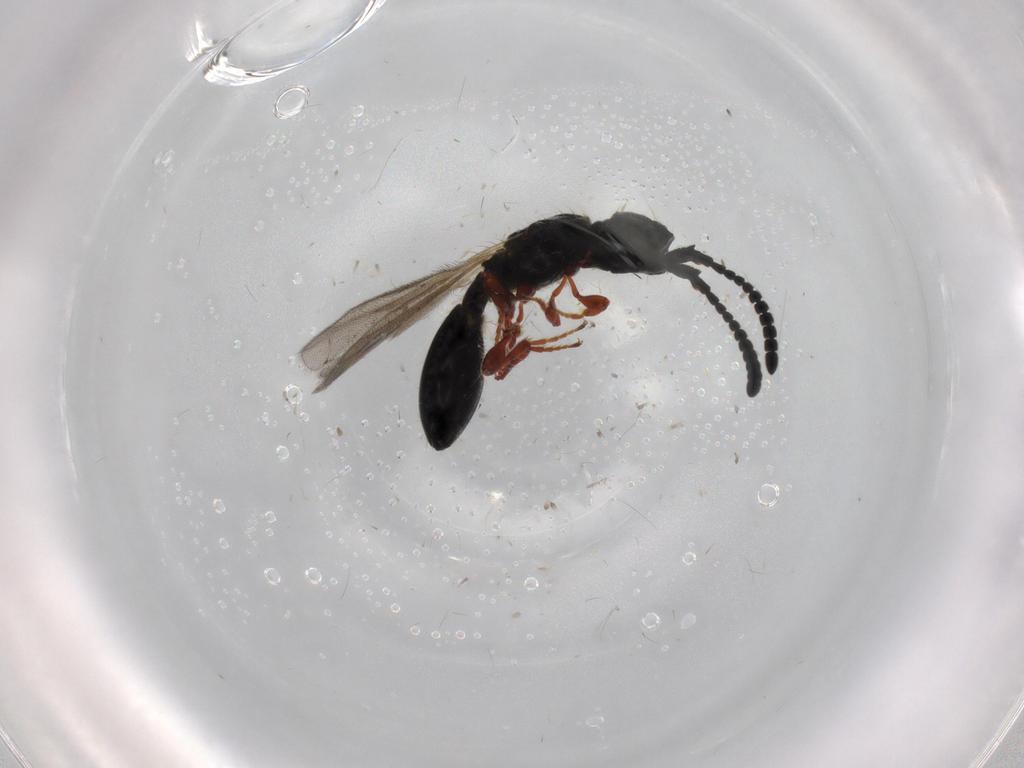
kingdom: Animalia
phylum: Arthropoda
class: Insecta
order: Hymenoptera
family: Diapriidae
